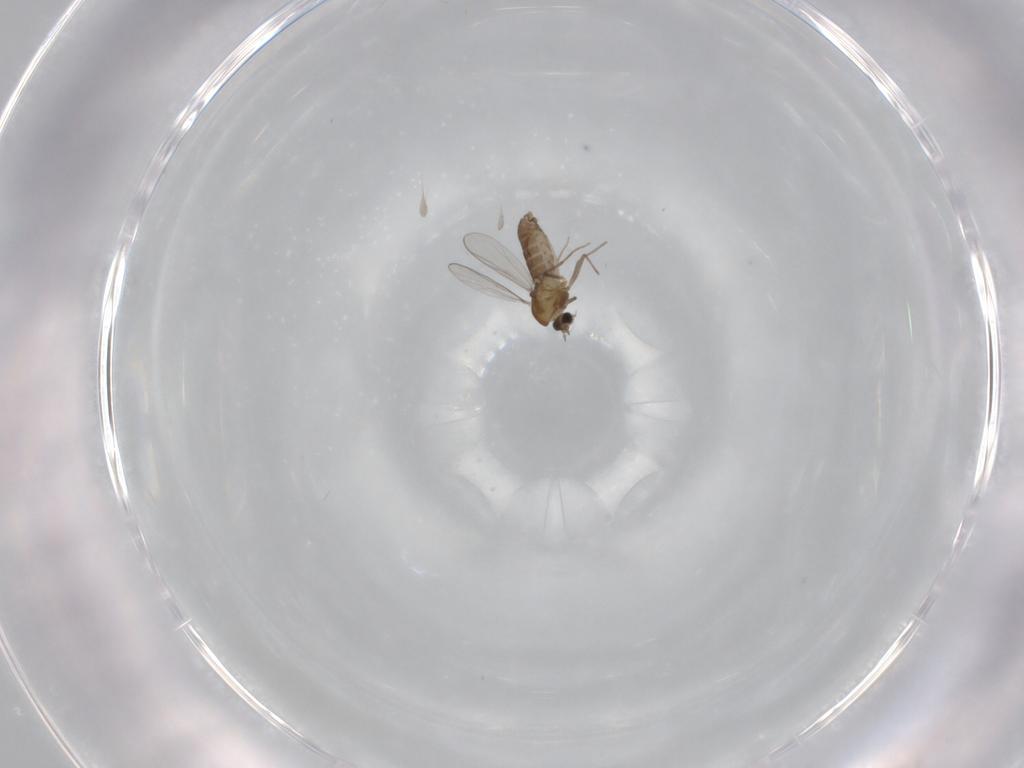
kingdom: Animalia
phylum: Arthropoda
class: Insecta
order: Diptera
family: Chironomidae
